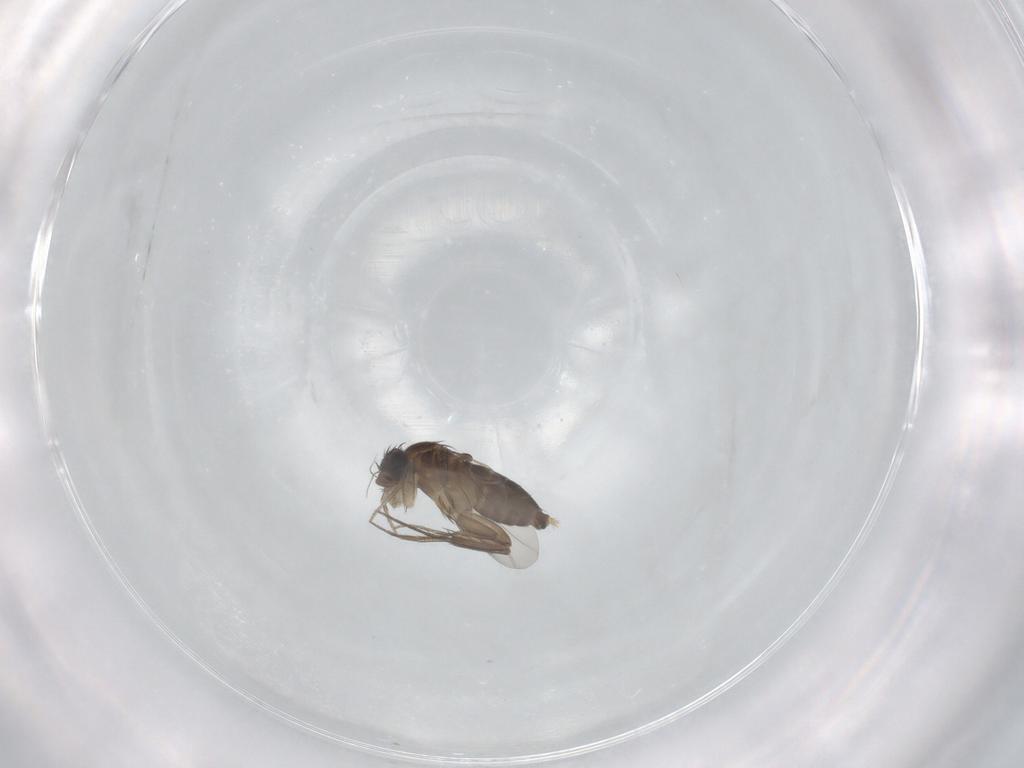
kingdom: Animalia
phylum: Arthropoda
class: Insecta
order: Diptera
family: Phoridae
